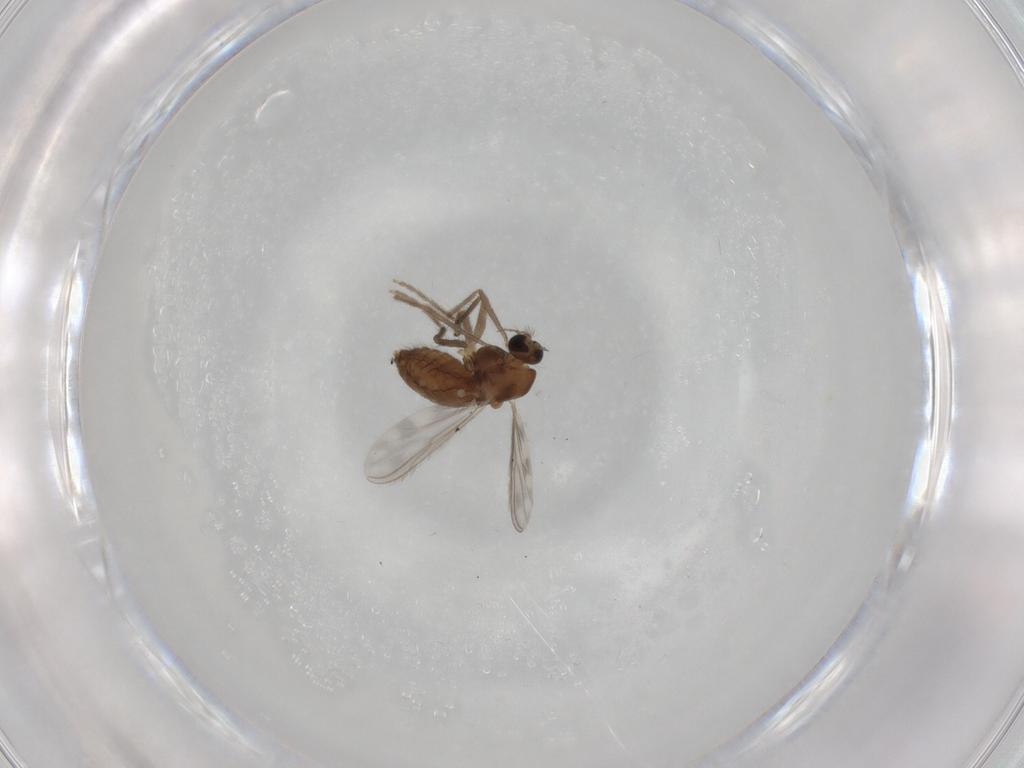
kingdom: Animalia
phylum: Arthropoda
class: Insecta
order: Diptera
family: Chironomidae
